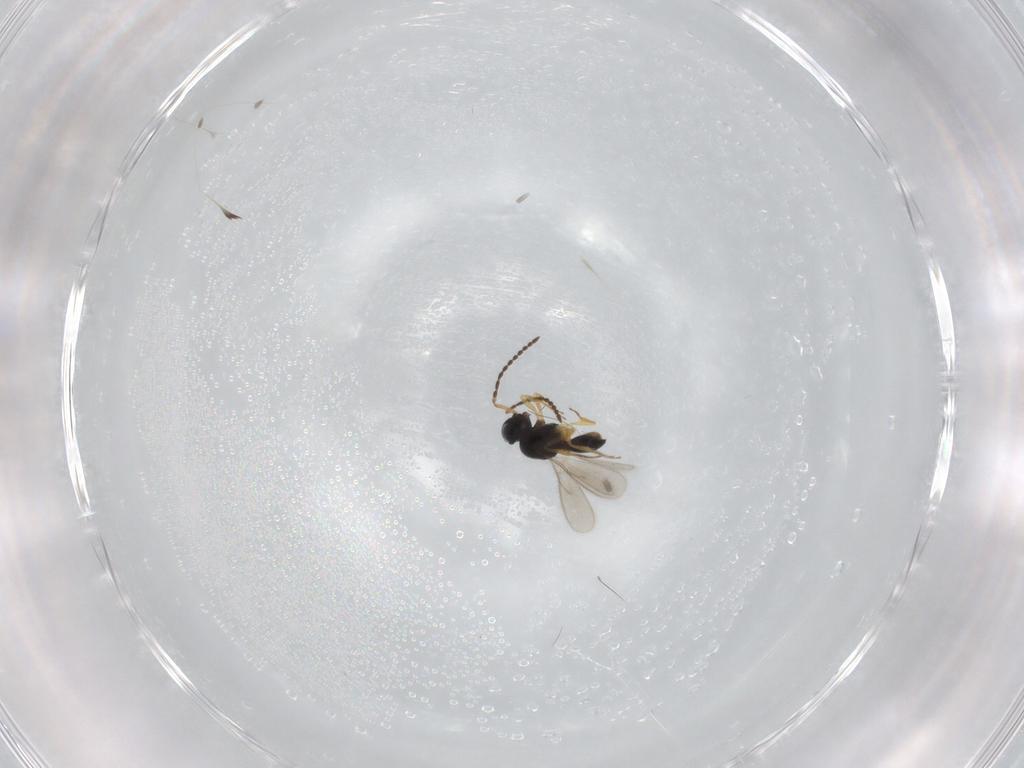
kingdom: Animalia
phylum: Arthropoda
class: Insecta
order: Hymenoptera
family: Scelionidae
